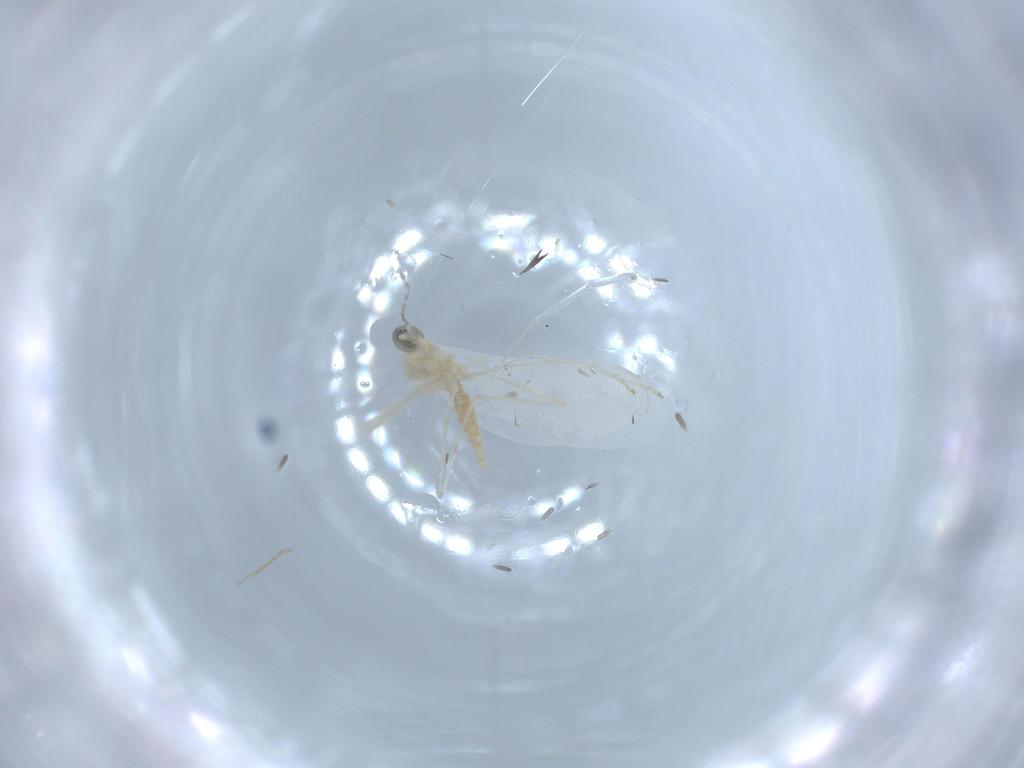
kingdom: Animalia
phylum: Arthropoda
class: Insecta
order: Diptera
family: Cecidomyiidae
